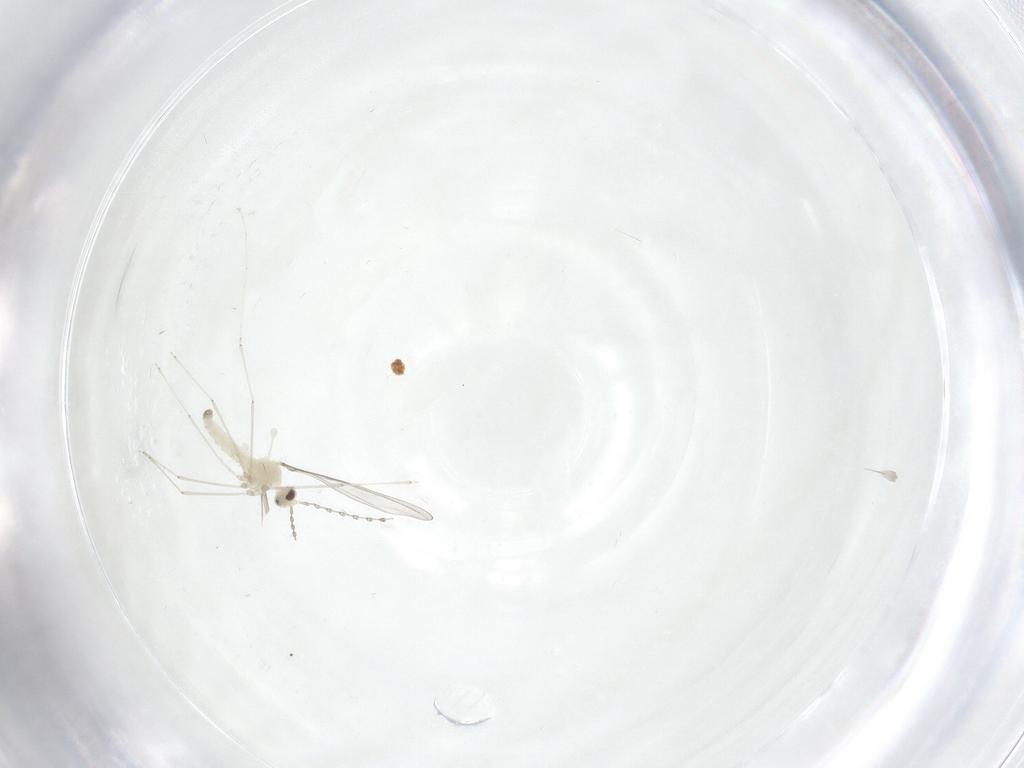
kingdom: Animalia
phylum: Arthropoda
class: Insecta
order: Diptera
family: Cecidomyiidae
